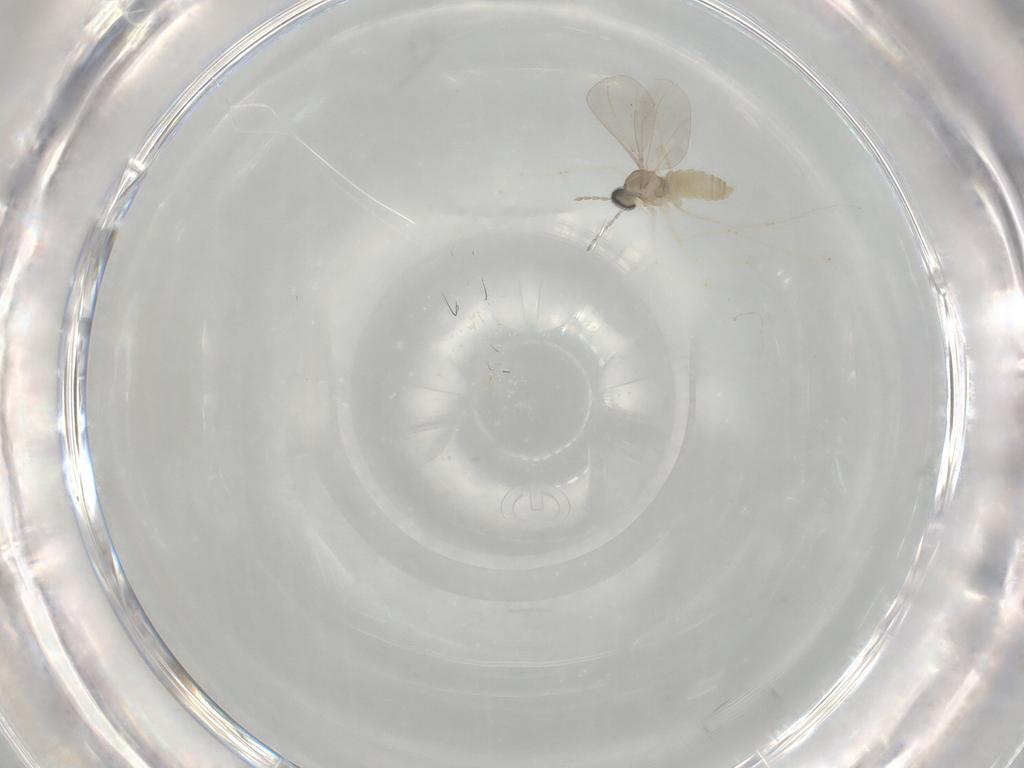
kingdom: Animalia
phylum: Arthropoda
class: Insecta
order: Diptera
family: Cecidomyiidae
